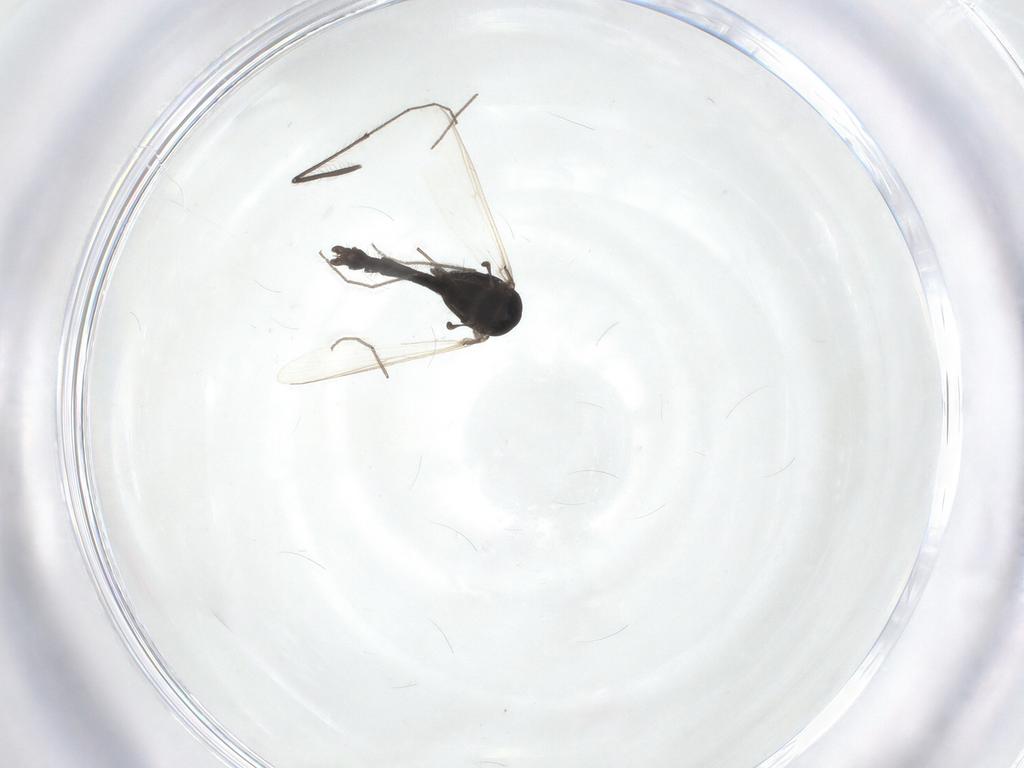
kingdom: Animalia
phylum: Arthropoda
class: Insecta
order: Diptera
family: Chironomidae
